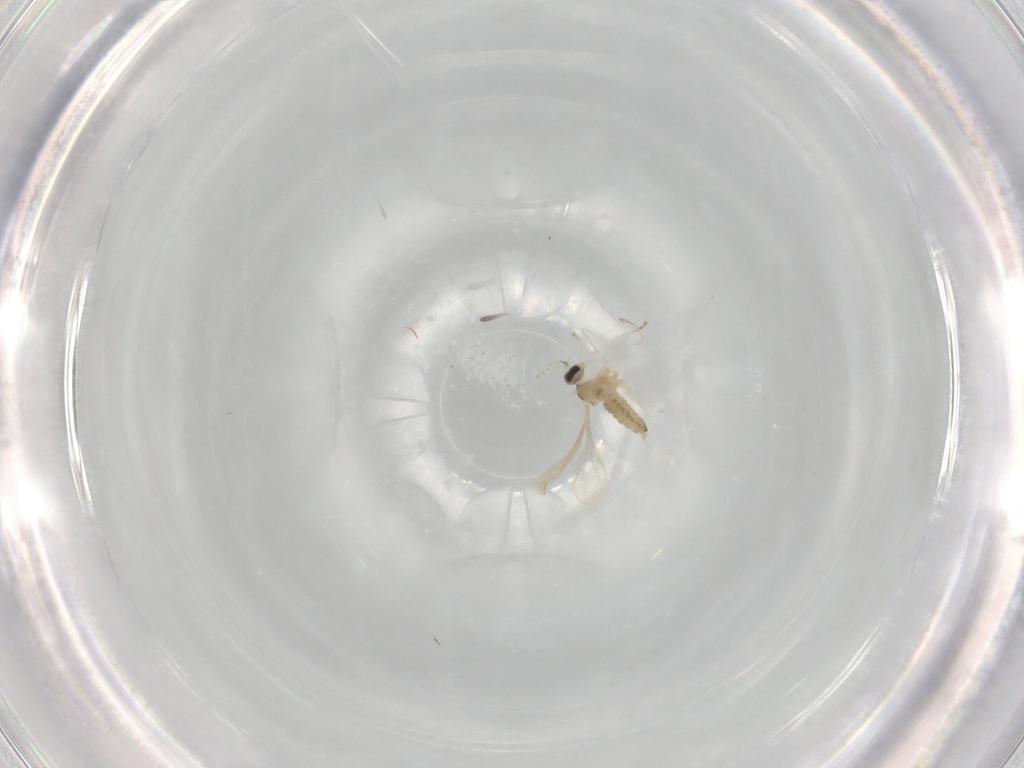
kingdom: Animalia
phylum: Arthropoda
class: Insecta
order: Diptera
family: Cecidomyiidae
